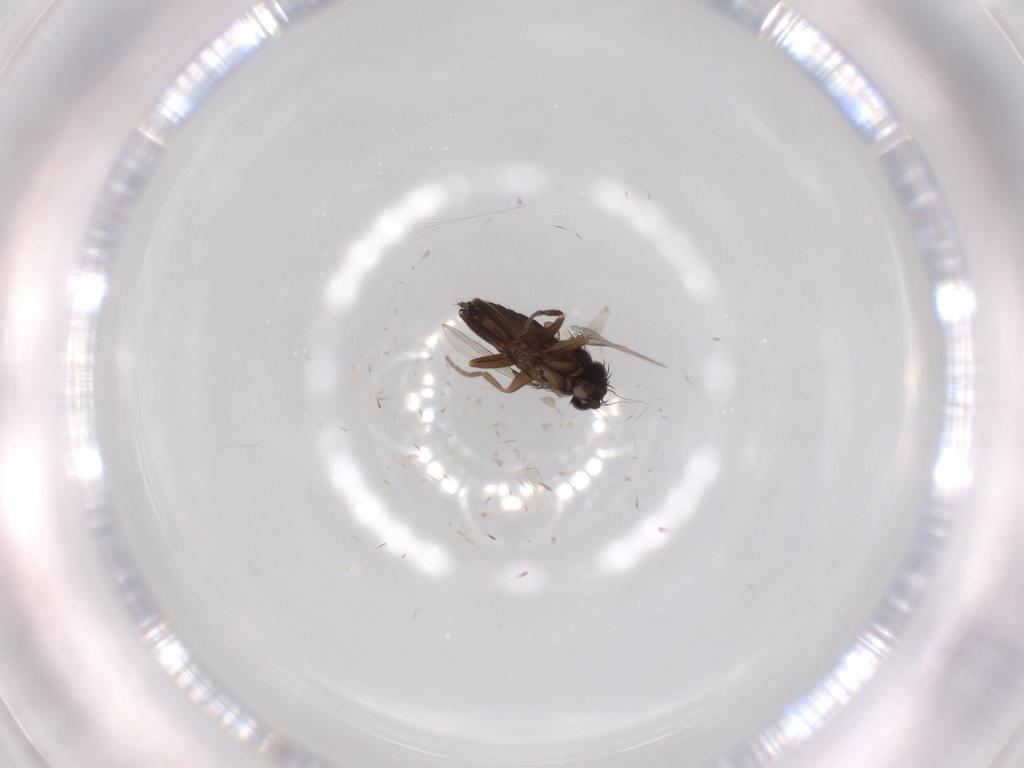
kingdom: Animalia
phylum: Arthropoda
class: Insecta
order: Diptera
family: Phoridae
